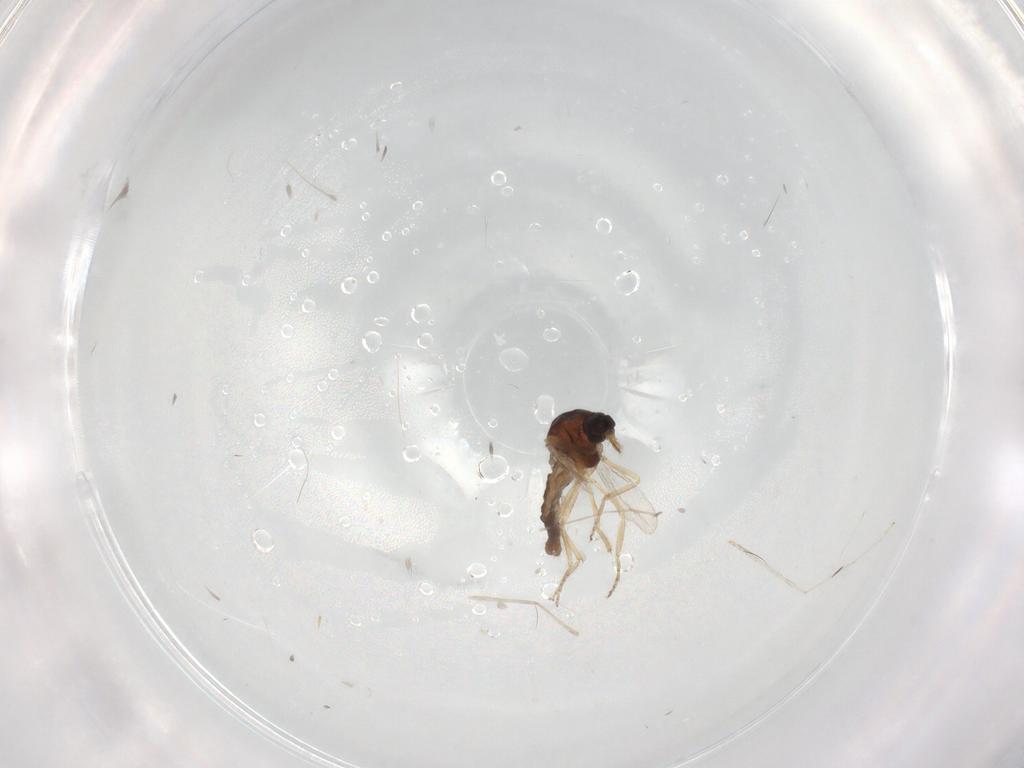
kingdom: Animalia
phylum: Arthropoda
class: Insecta
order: Diptera
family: Ceratopogonidae
